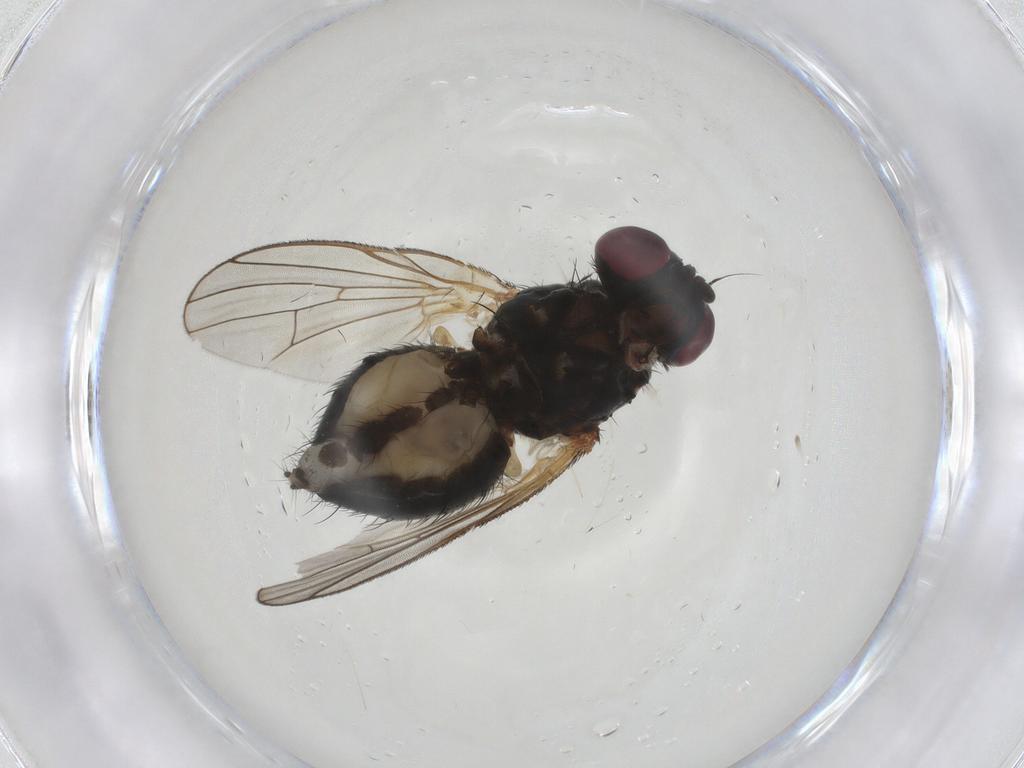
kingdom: Animalia
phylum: Arthropoda
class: Insecta
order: Diptera
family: Fannia
